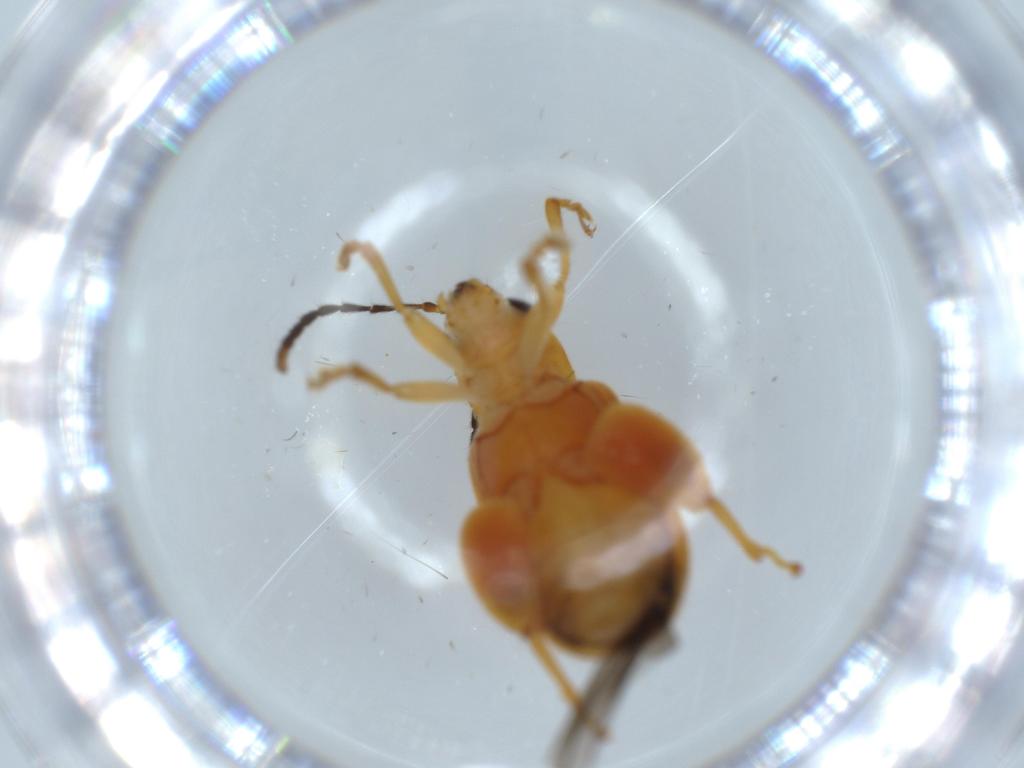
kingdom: Animalia
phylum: Arthropoda
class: Insecta
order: Coleoptera
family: Chrysomelidae
